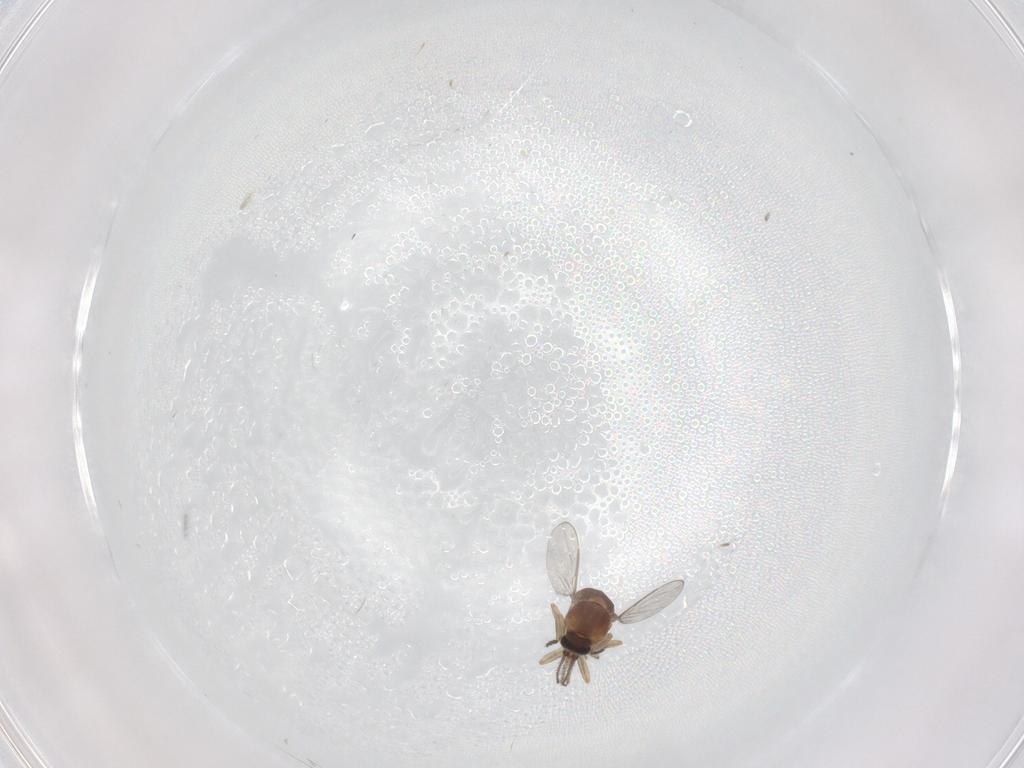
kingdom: Animalia
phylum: Arthropoda
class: Insecta
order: Diptera
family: Ceratopogonidae
